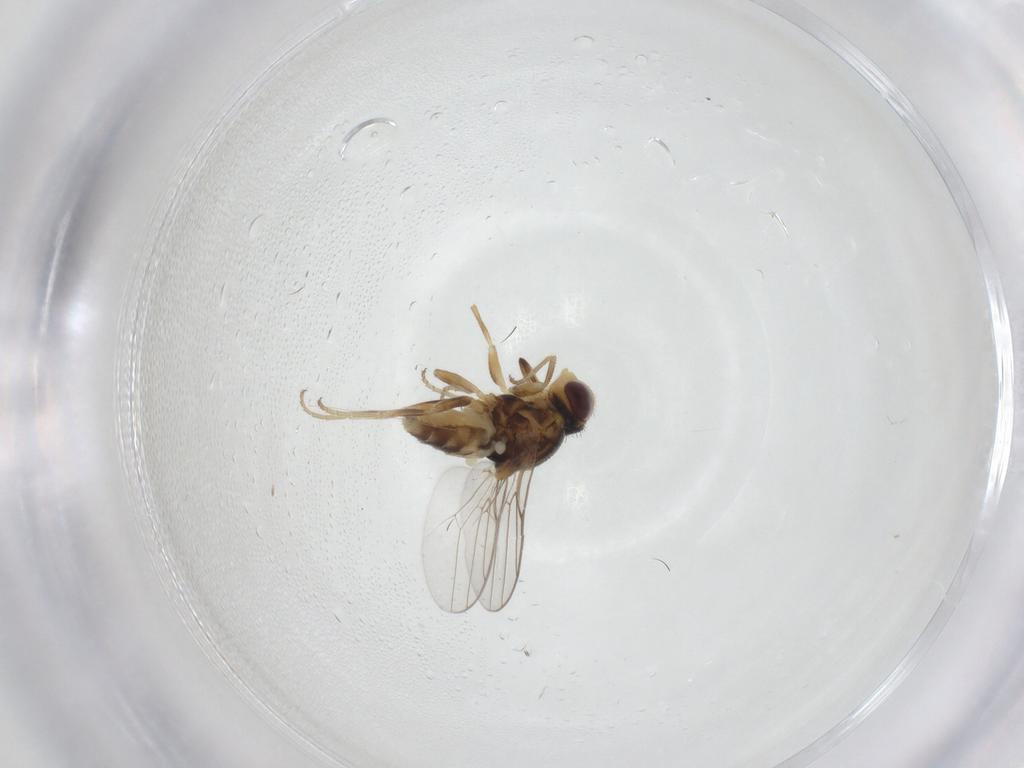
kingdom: Animalia
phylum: Arthropoda
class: Insecta
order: Diptera
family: Chloropidae
